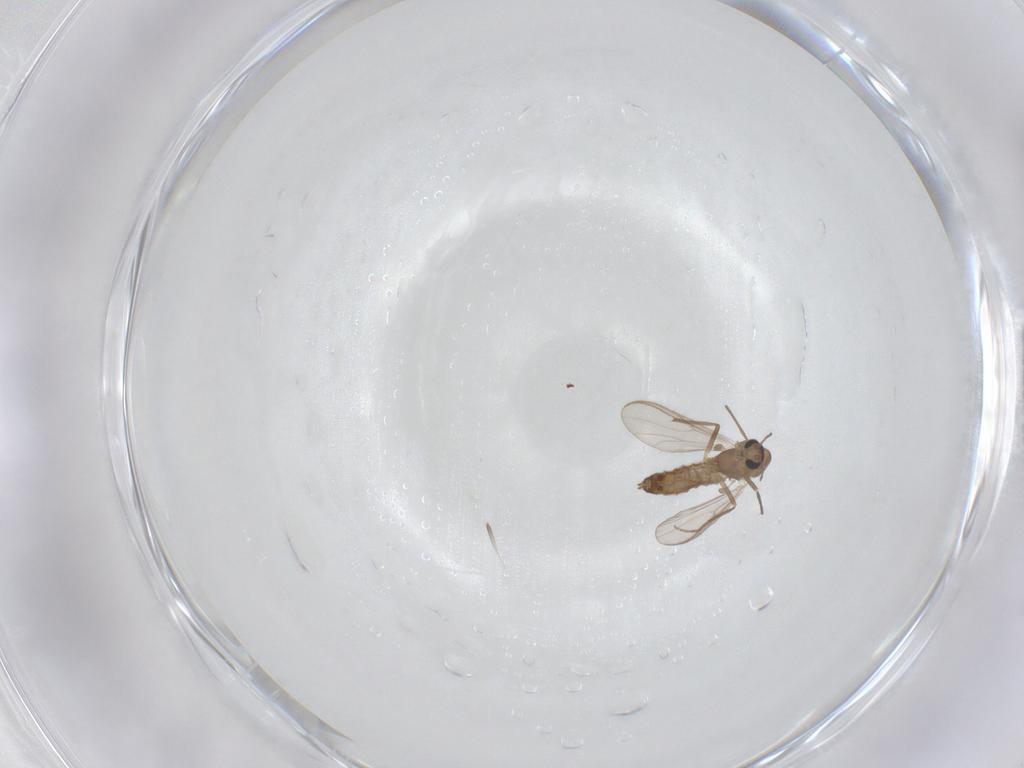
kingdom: Animalia
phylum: Arthropoda
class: Insecta
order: Diptera
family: Chironomidae
